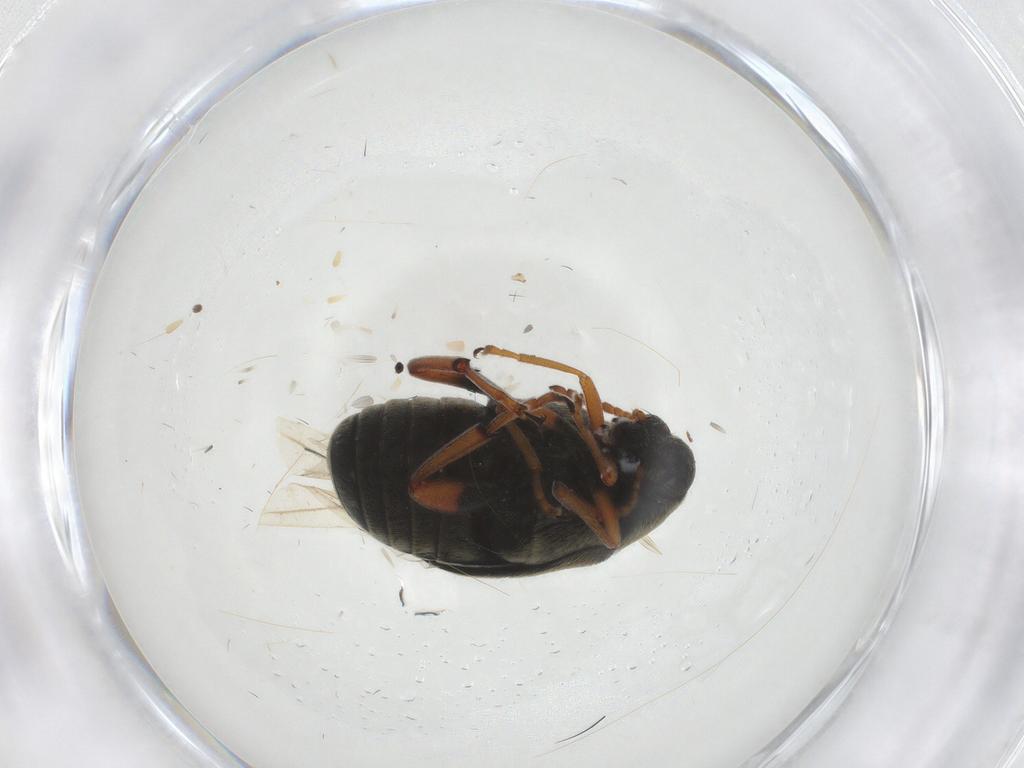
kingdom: Animalia
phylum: Arthropoda
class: Insecta
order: Coleoptera
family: Chrysomelidae
